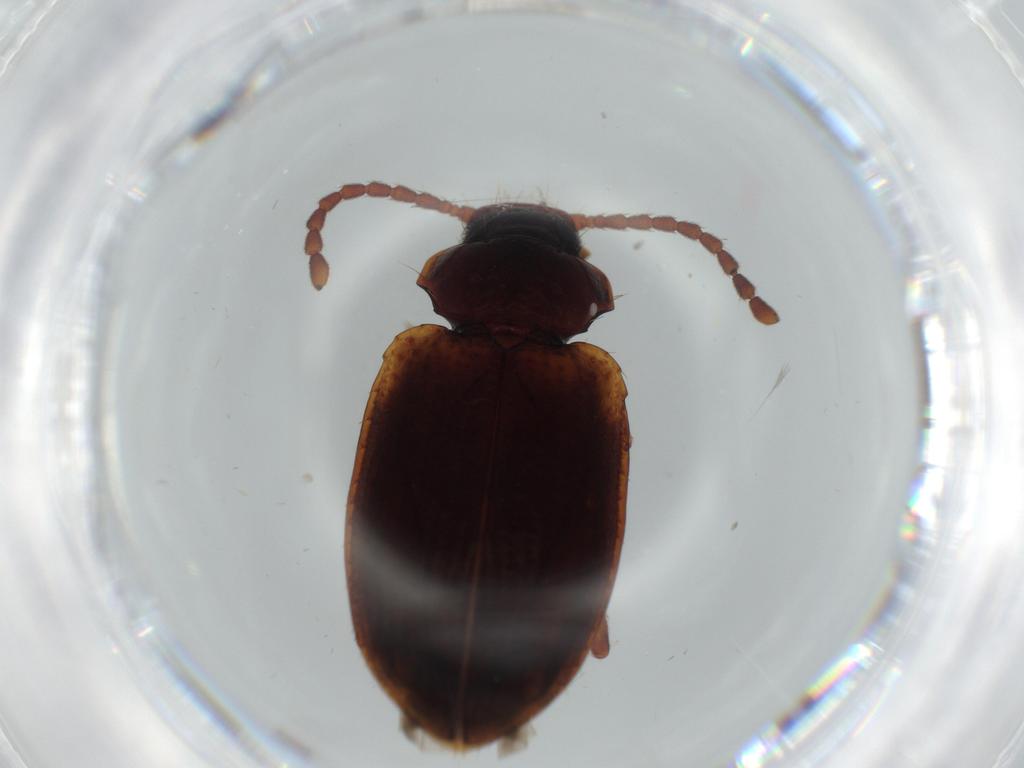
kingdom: Animalia
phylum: Arthropoda
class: Insecta
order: Coleoptera
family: Tenebrionidae
